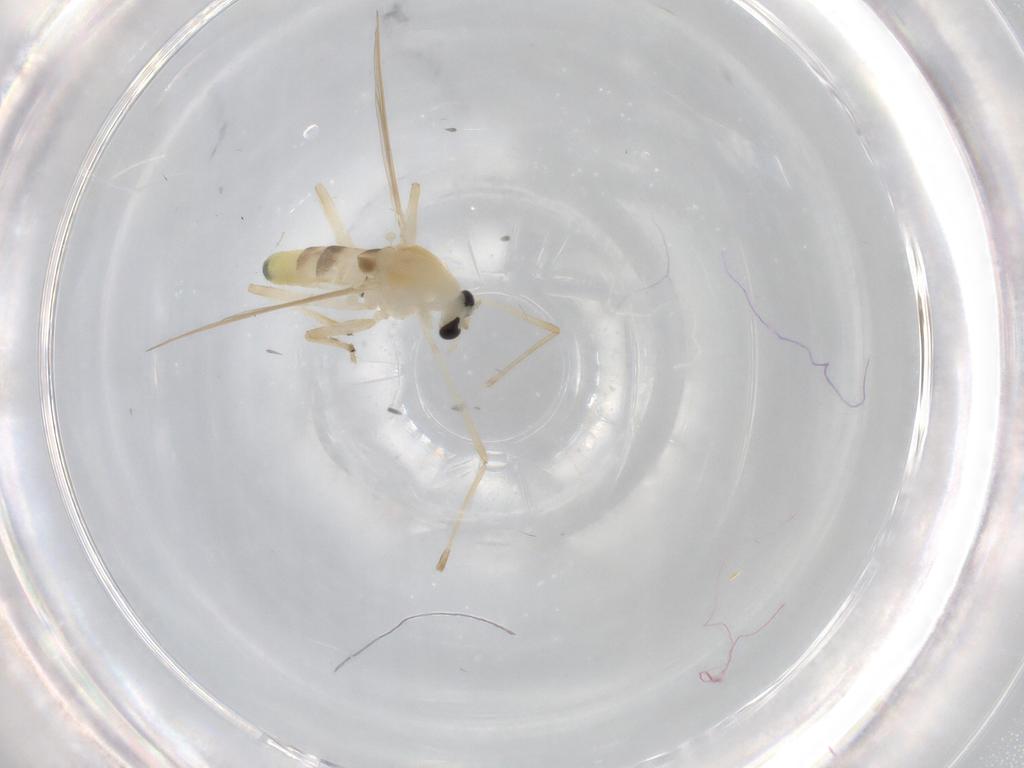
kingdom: Animalia
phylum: Arthropoda
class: Insecta
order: Diptera
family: Chironomidae
